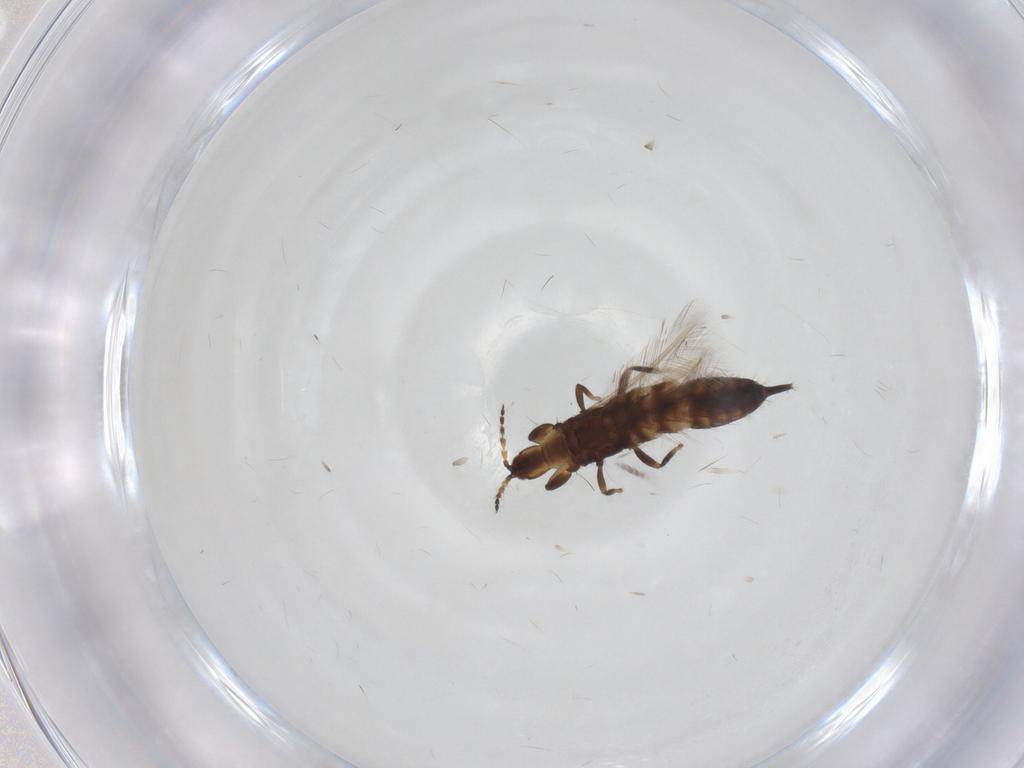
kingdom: Animalia
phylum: Arthropoda
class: Insecta
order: Thysanoptera
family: Phlaeothripidae
